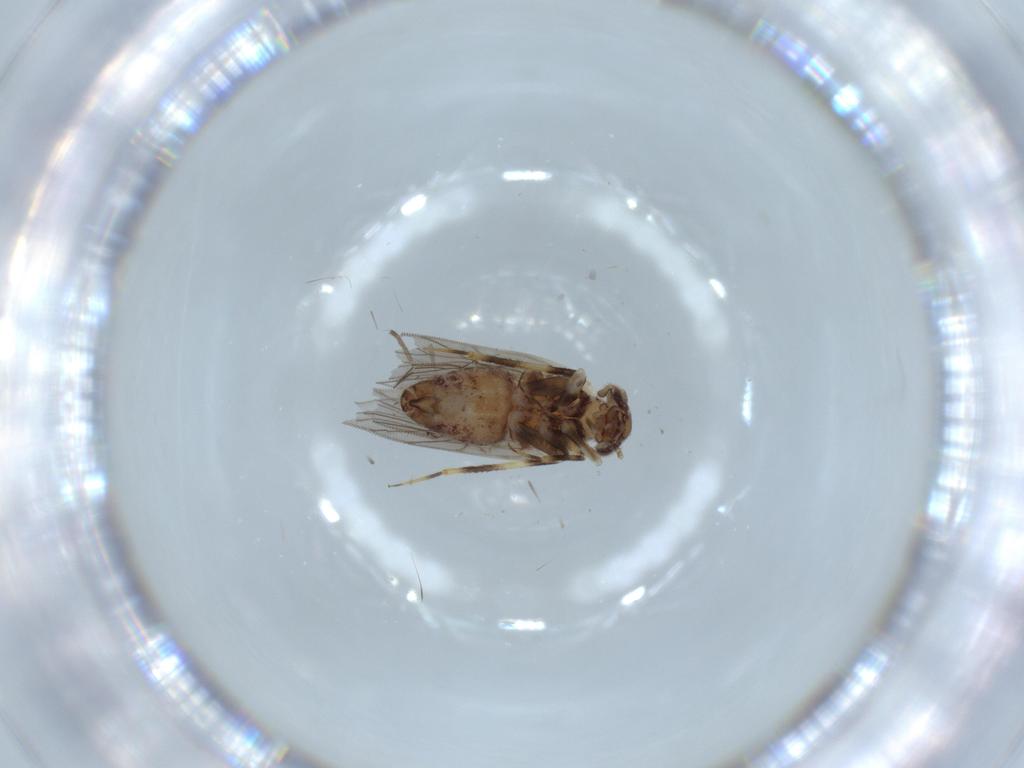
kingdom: Animalia
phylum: Arthropoda
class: Insecta
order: Psocodea
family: Lepidopsocidae
